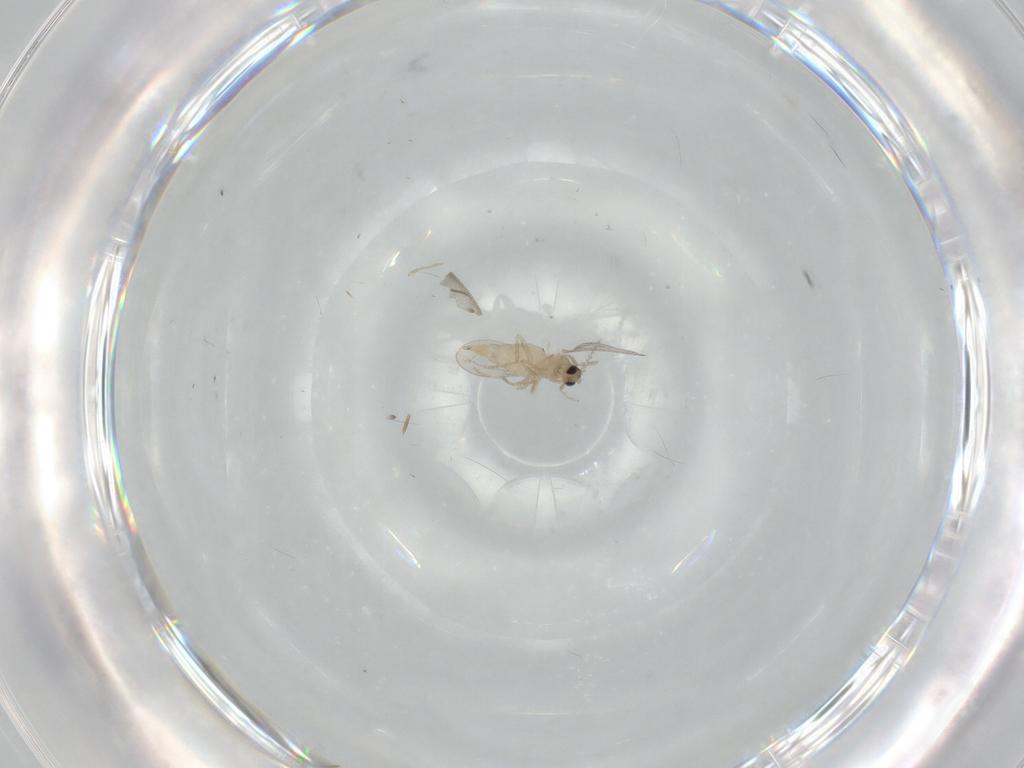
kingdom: Animalia
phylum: Arthropoda
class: Insecta
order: Diptera
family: Cecidomyiidae
